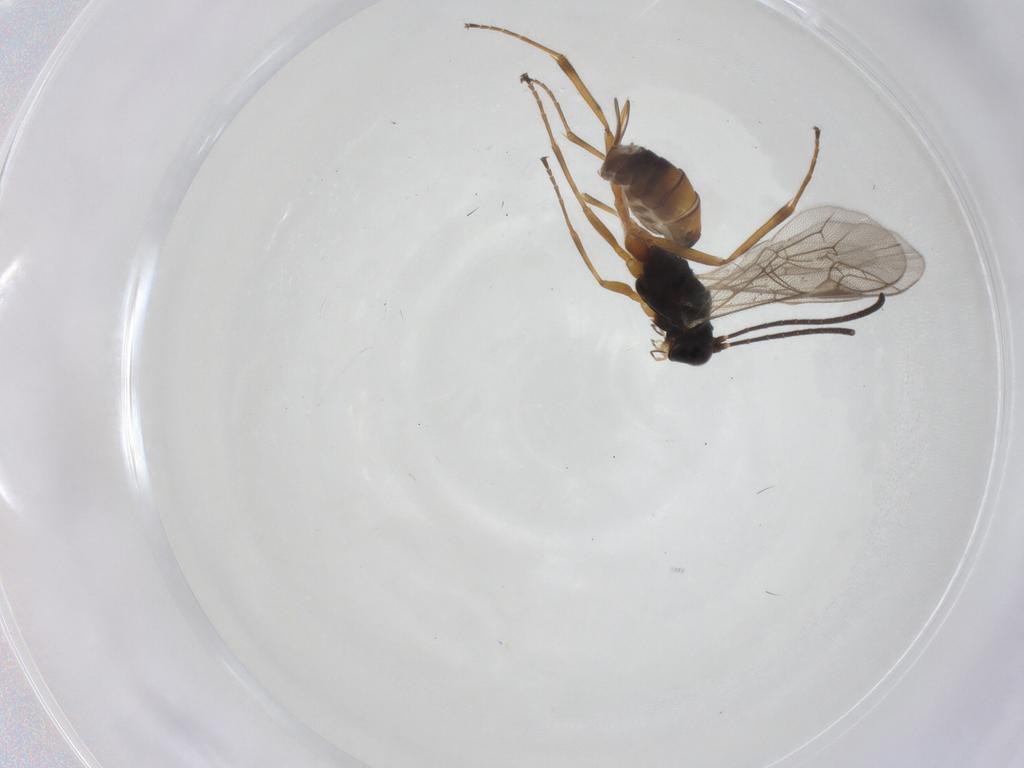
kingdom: Animalia
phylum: Arthropoda
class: Insecta
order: Hymenoptera
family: Ichneumonidae
